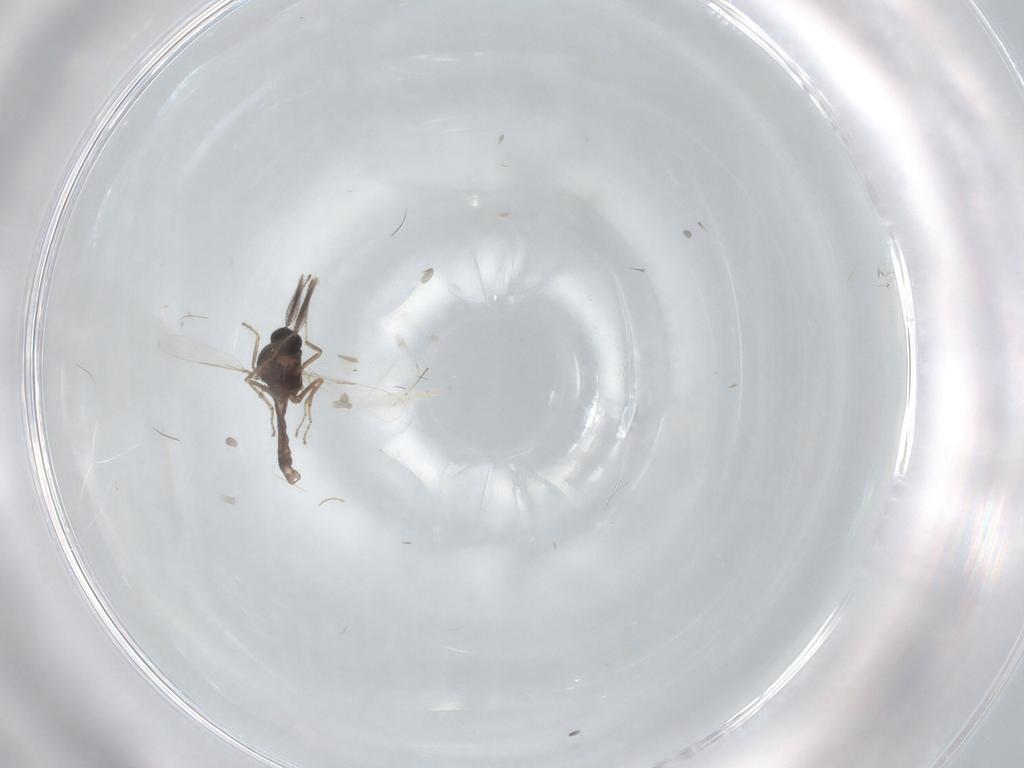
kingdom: Animalia
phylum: Arthropoda
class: Insecta
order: Diptera
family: Ceratopogonidae
